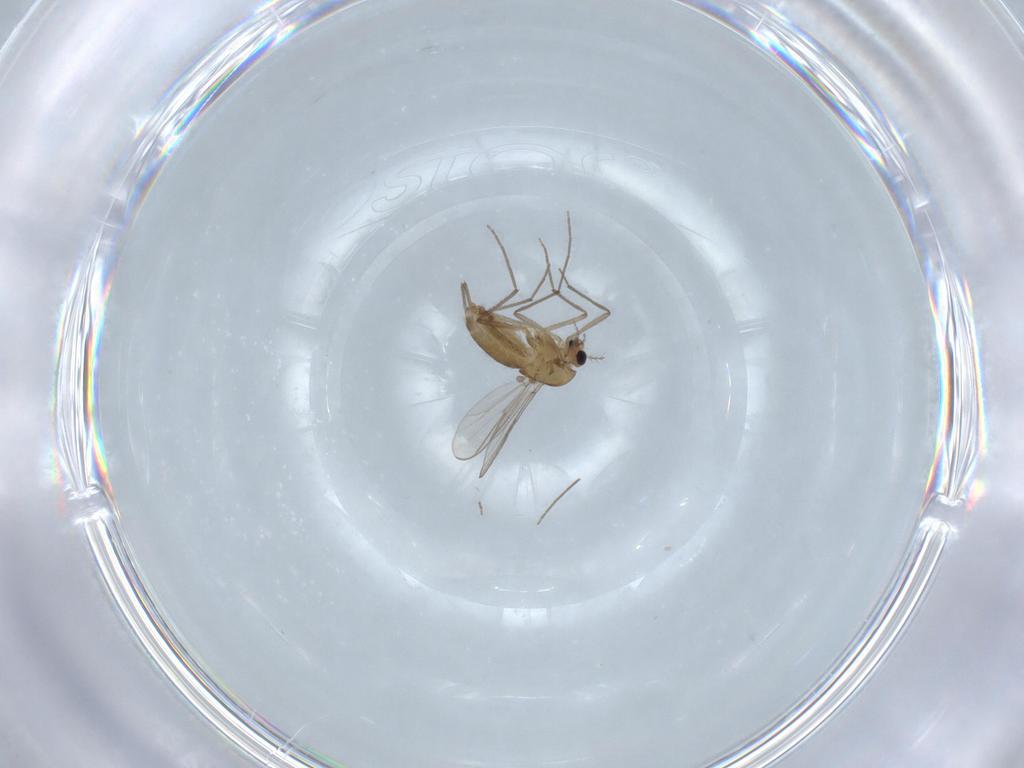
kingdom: Animalia
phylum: Arthropoda
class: Insecta
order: Diptera
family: Chironomidae
